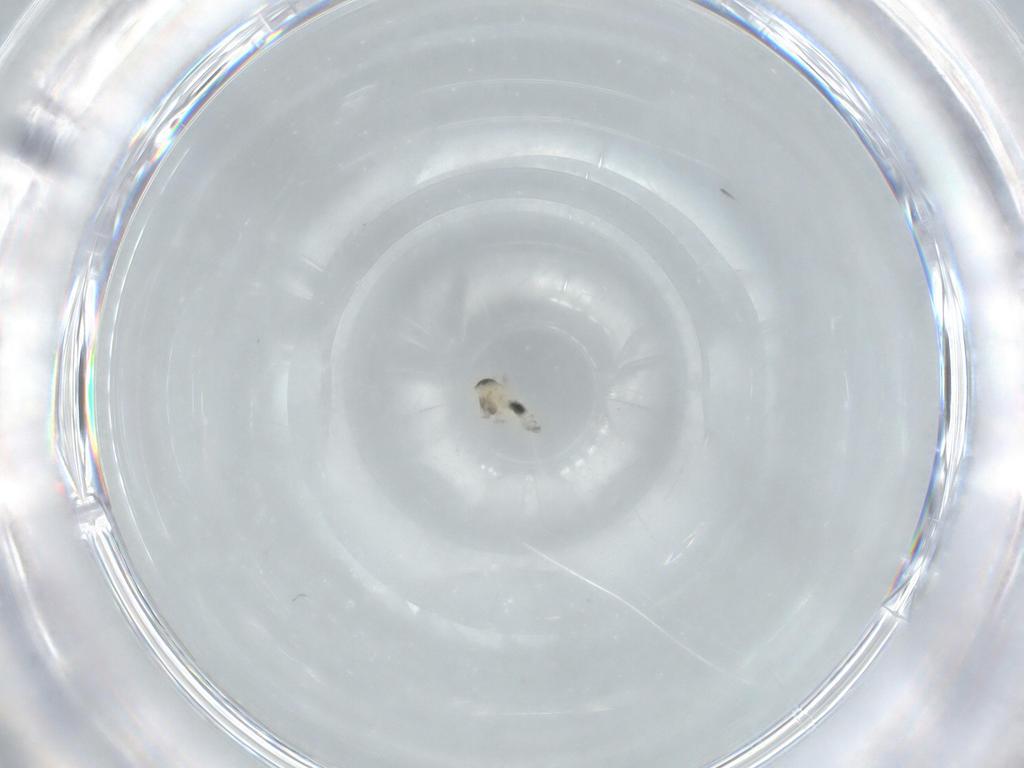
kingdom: Animalia
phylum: Arthropoda
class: Insecta
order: Diptera
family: Cecidomyiidae
